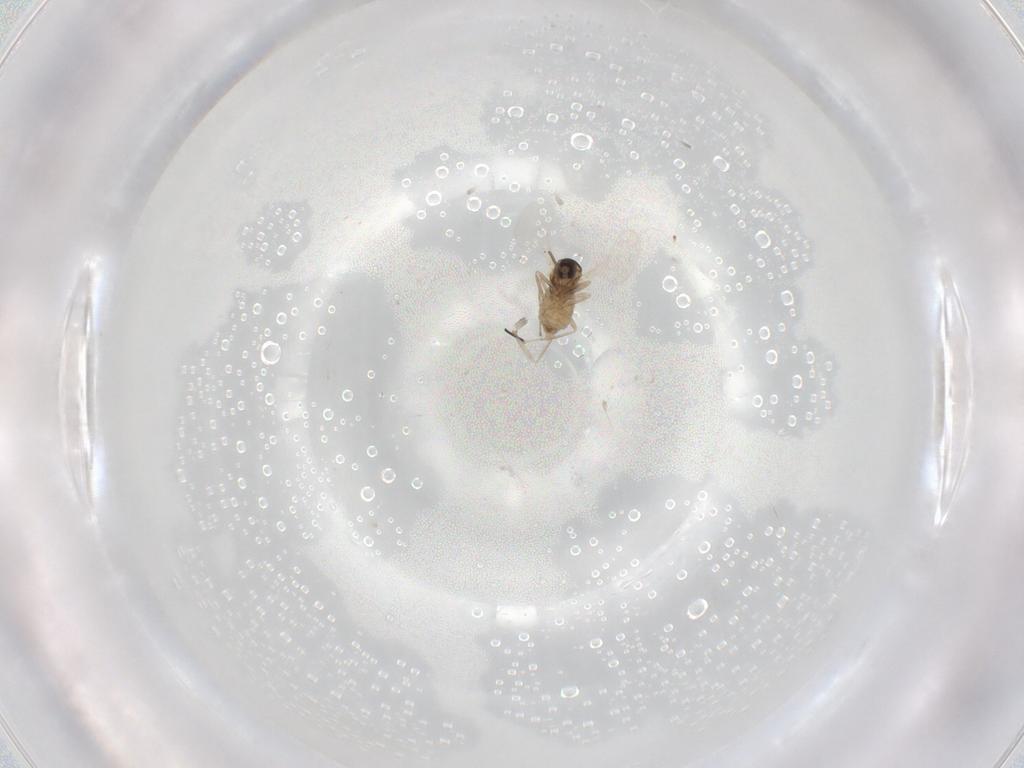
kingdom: Animalia
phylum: Arthropoda
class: Insecta
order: Diptera
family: Cecidomyiidae
